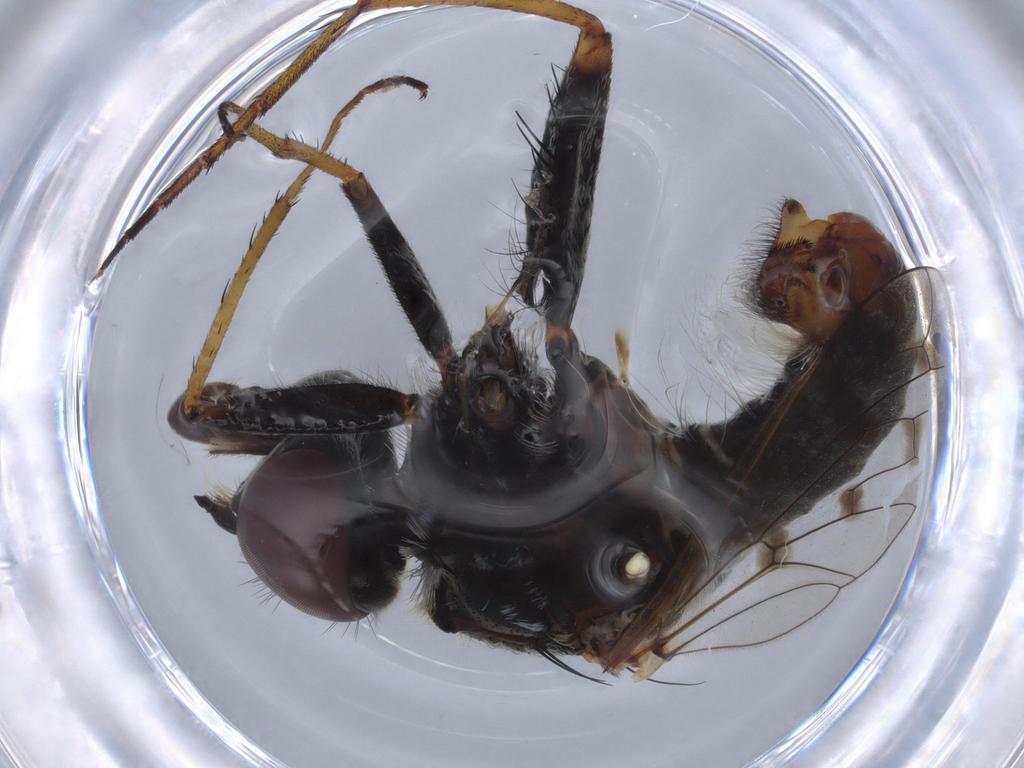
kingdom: Animalia
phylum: Arthropoda
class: Insecta
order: Diptera
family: Bombyliidae
